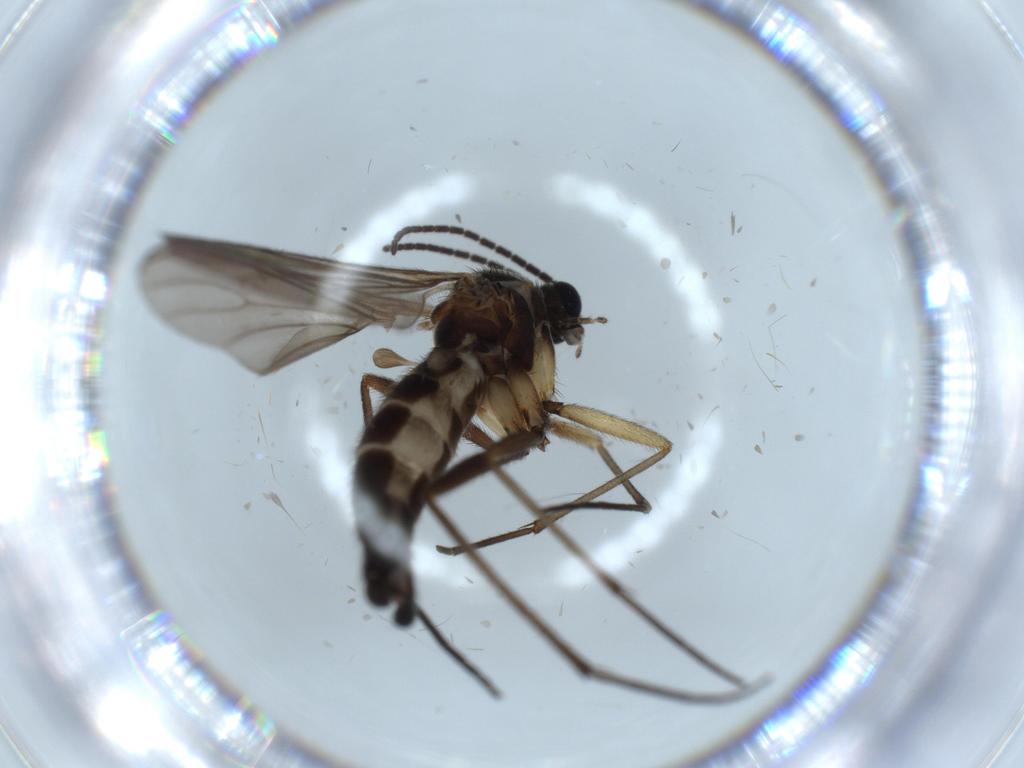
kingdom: Animalia
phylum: Arthropoda
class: Insecta
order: Diptera
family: Sciaridae
